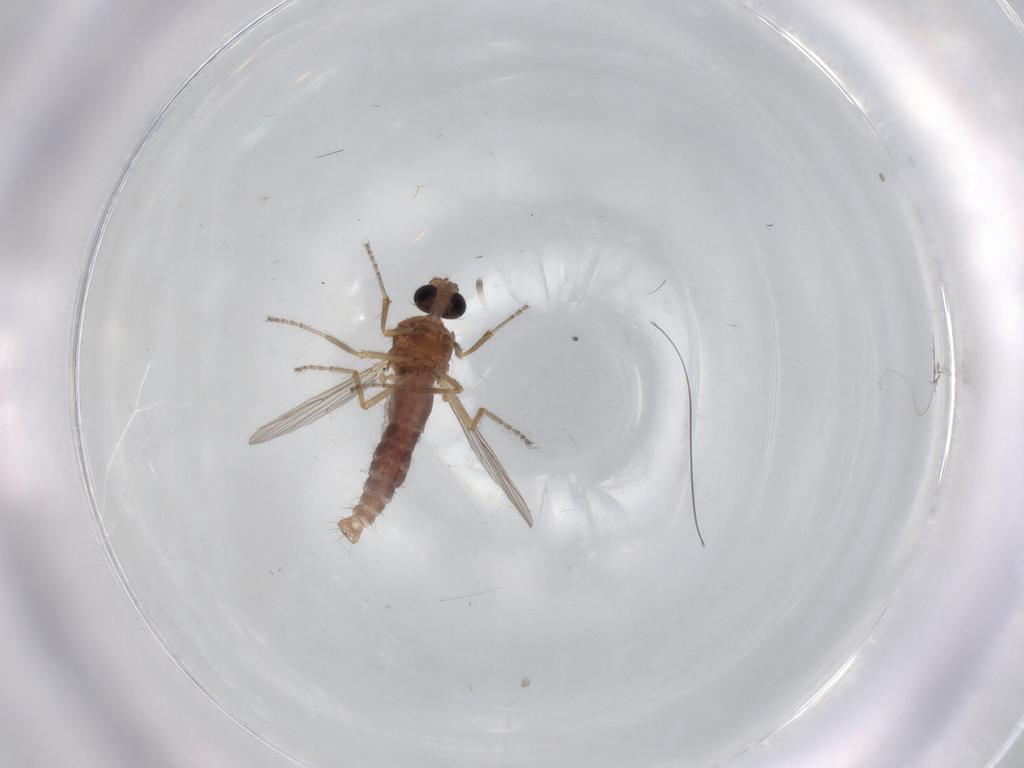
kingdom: Animalia
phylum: Arthropoda
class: Insecta
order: Diptera
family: Ceratopogonidae
